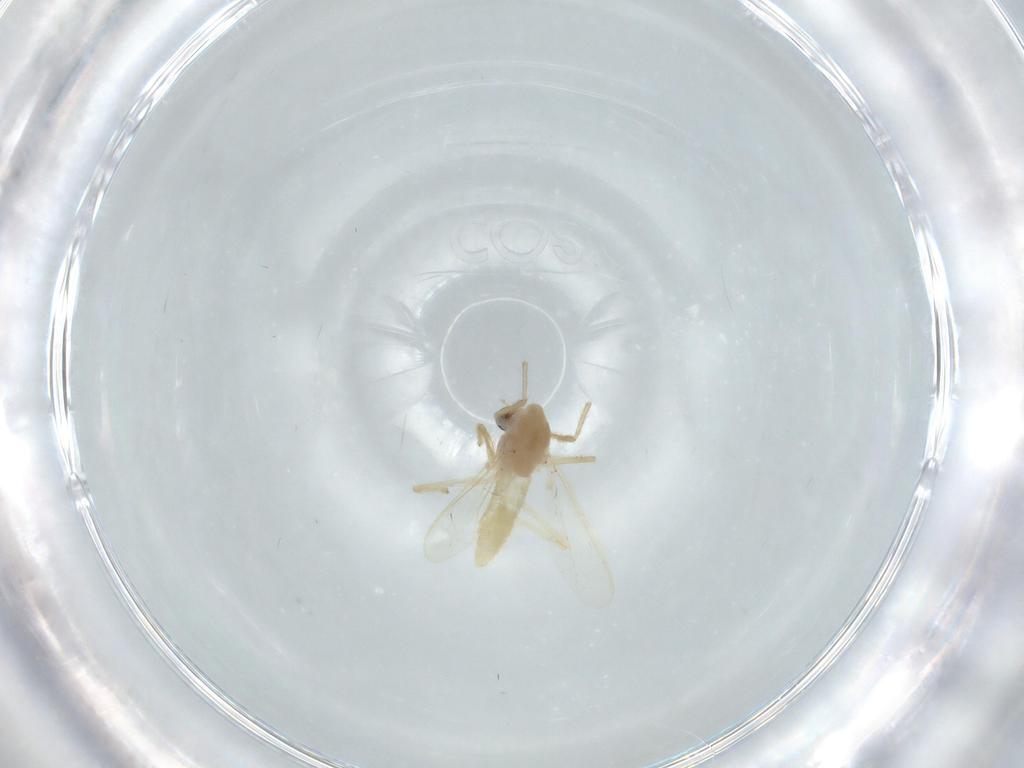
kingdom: Animalia
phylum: Arthropoda
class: Insecta
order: Diptera
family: Chironomidae
